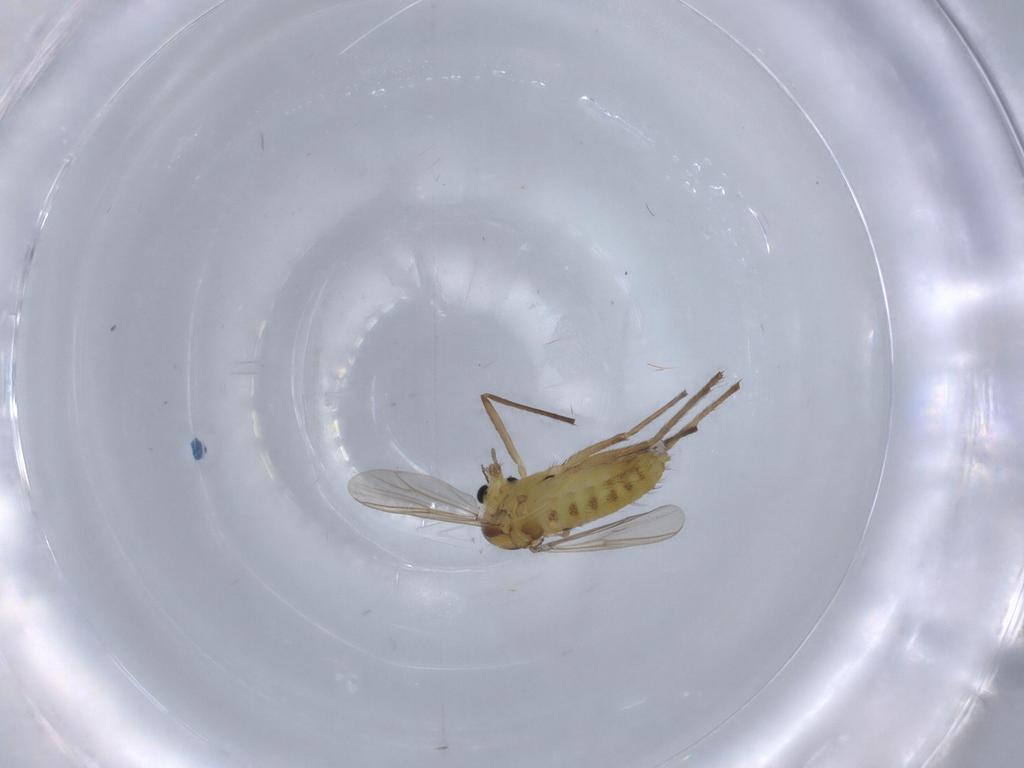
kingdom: Animalia
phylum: Arthropoda
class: Insecta
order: Diptera
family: Chironomidae
